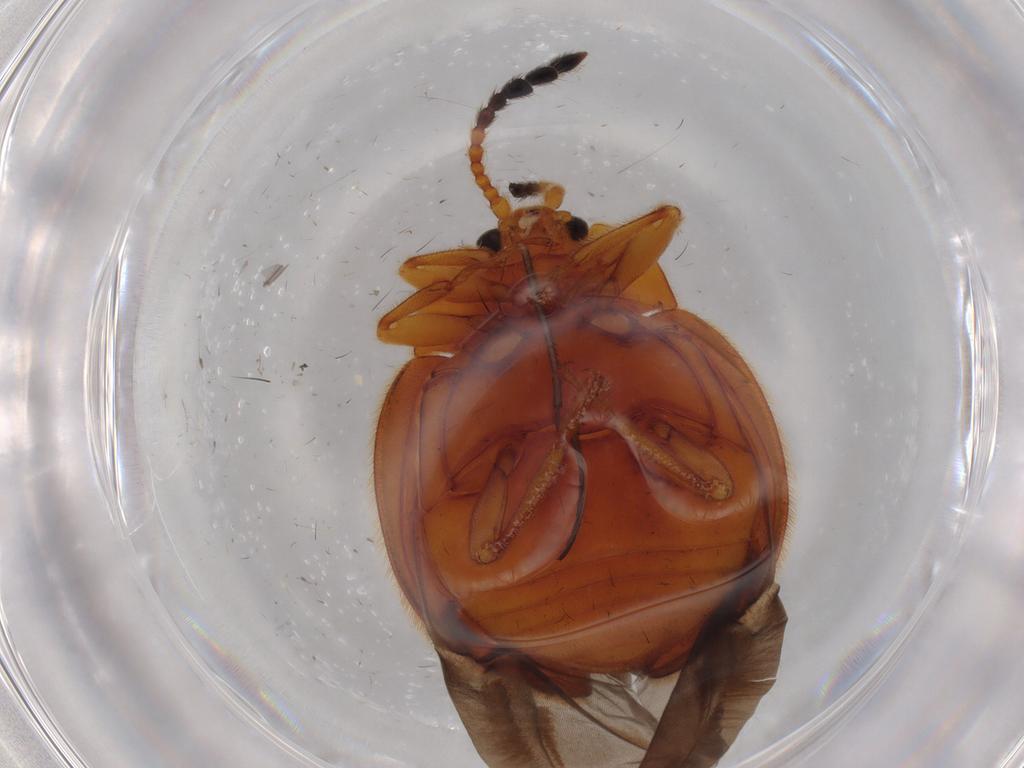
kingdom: Animalia
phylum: Arthropoda
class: Insecta
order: Coleoptera
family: Endomychidae
